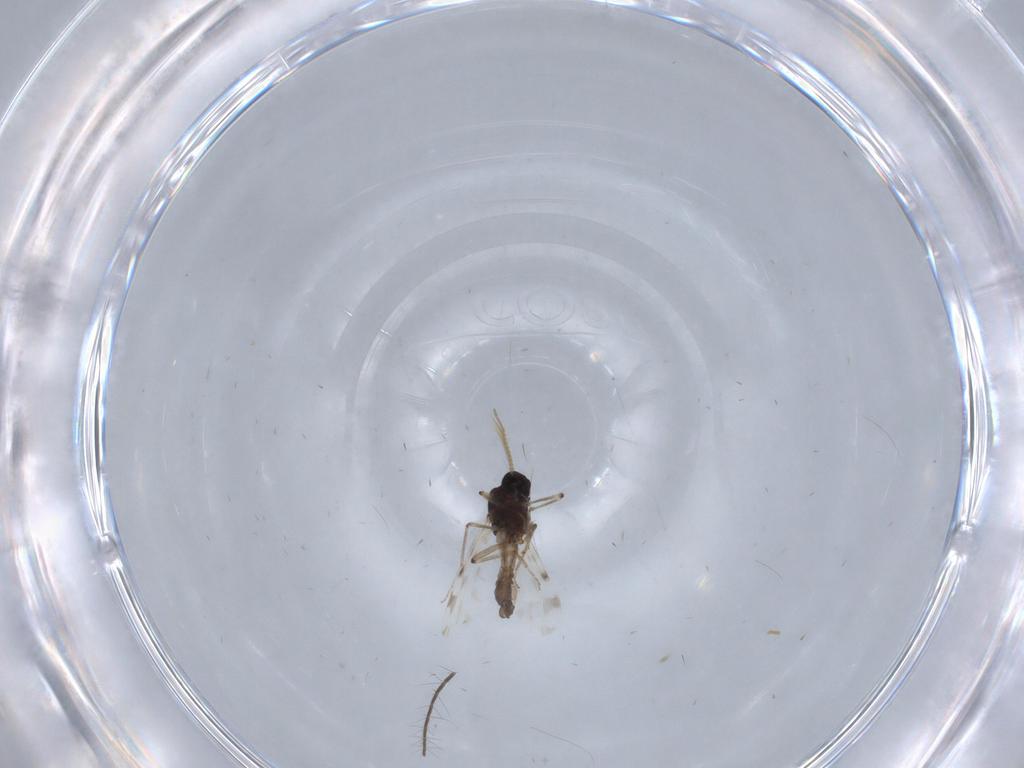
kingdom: Animalia
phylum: Arthropoda
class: Insecta
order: Diptera
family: Culicidae
